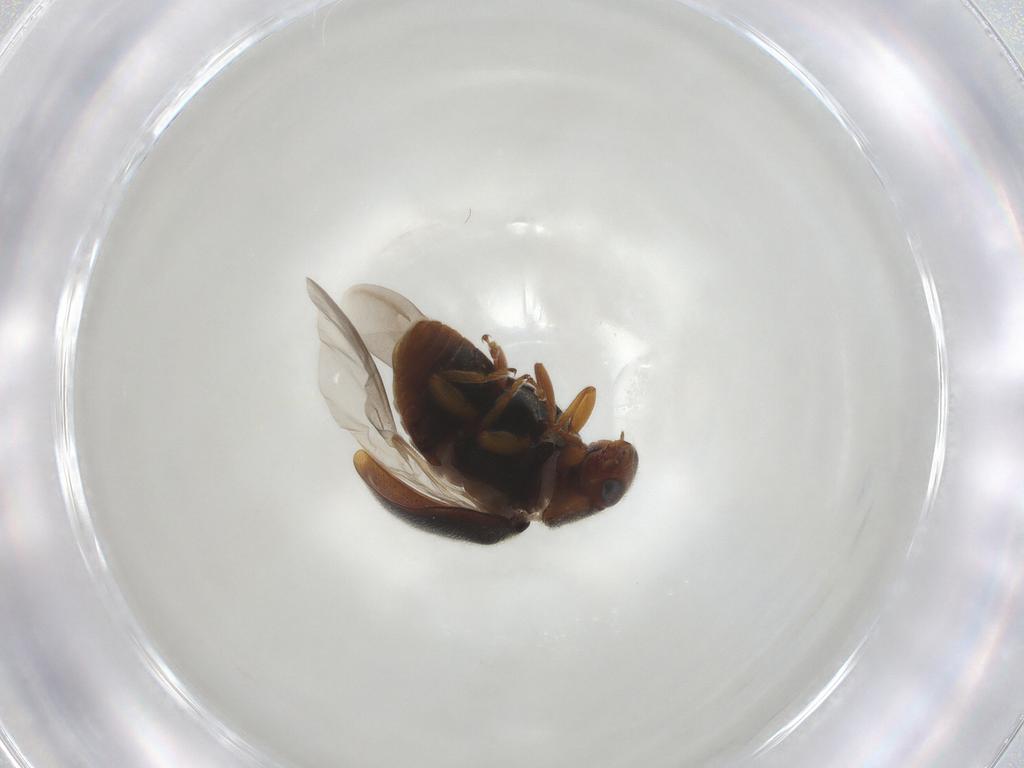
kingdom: Animalia
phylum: Arthropoda
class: Insecta
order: Coleoptera
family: Coccinellidae
